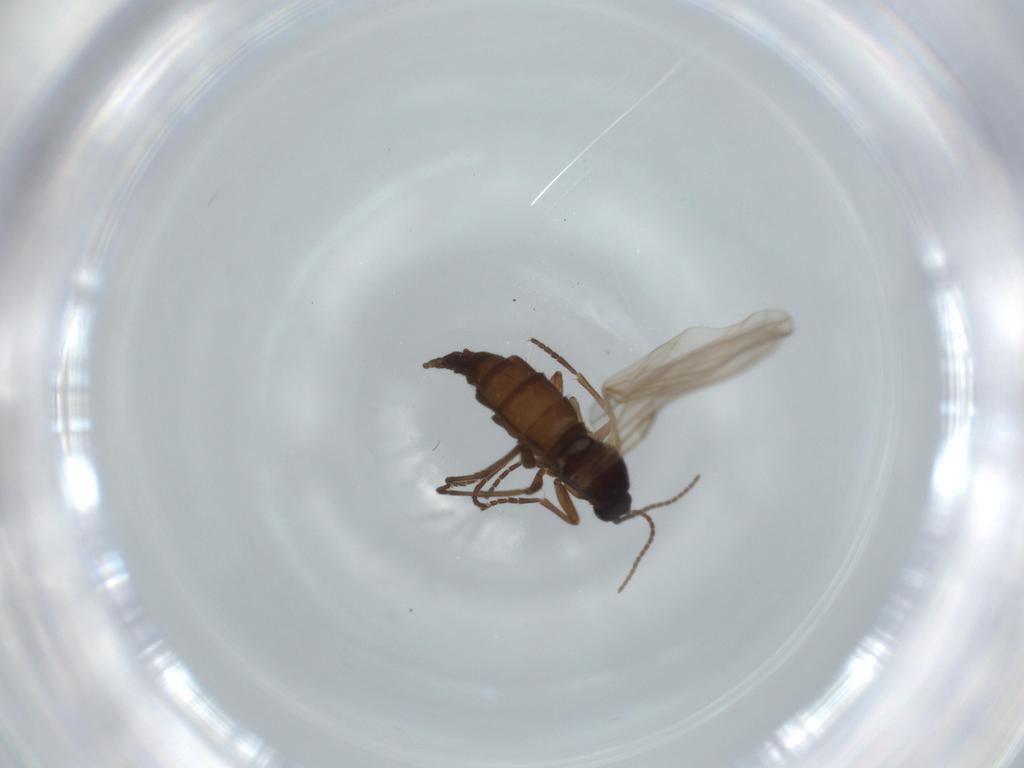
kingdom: Animalia
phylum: Arthropoda
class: Insecta
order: Diptera
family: Sciaridae
